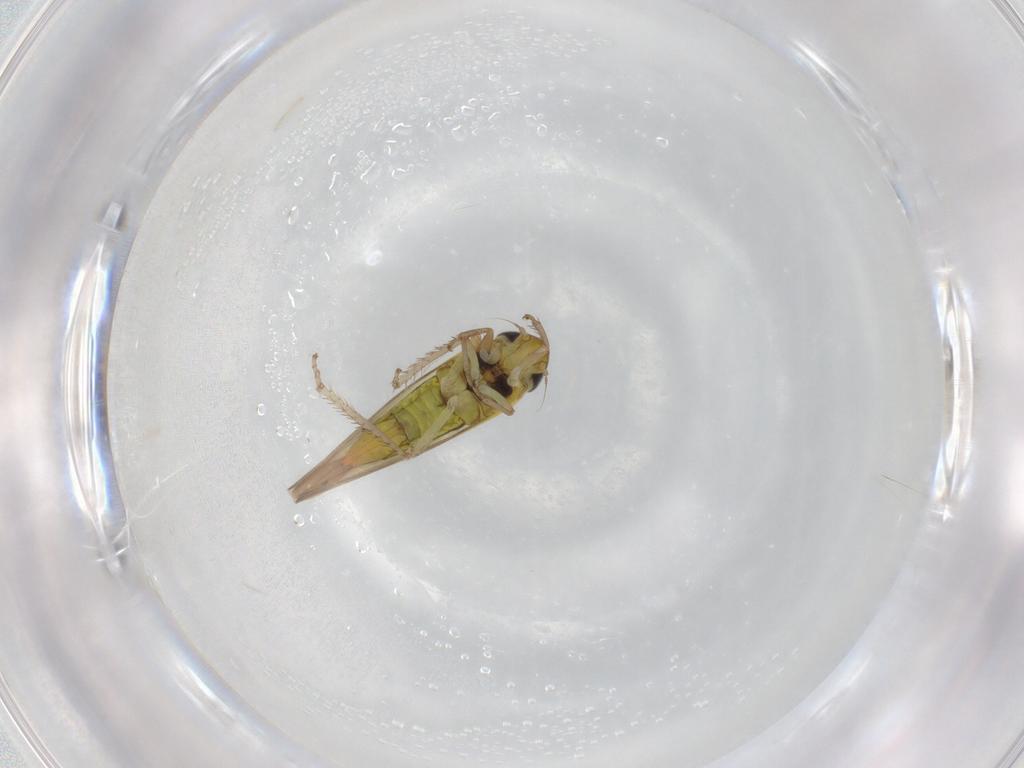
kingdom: Animalia
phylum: Arthropoda
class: Insecta
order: Hemiptera
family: Cicadellidae
